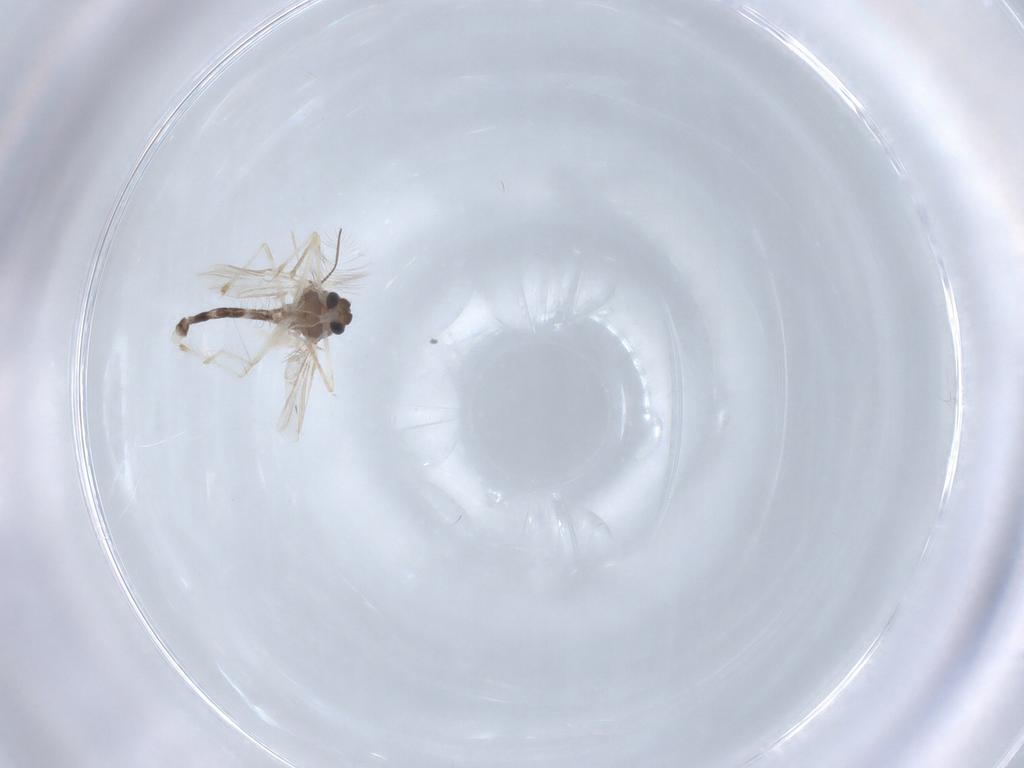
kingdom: Animalia
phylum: Arthropoda
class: Insecta
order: Diptera
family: Chironomidae
